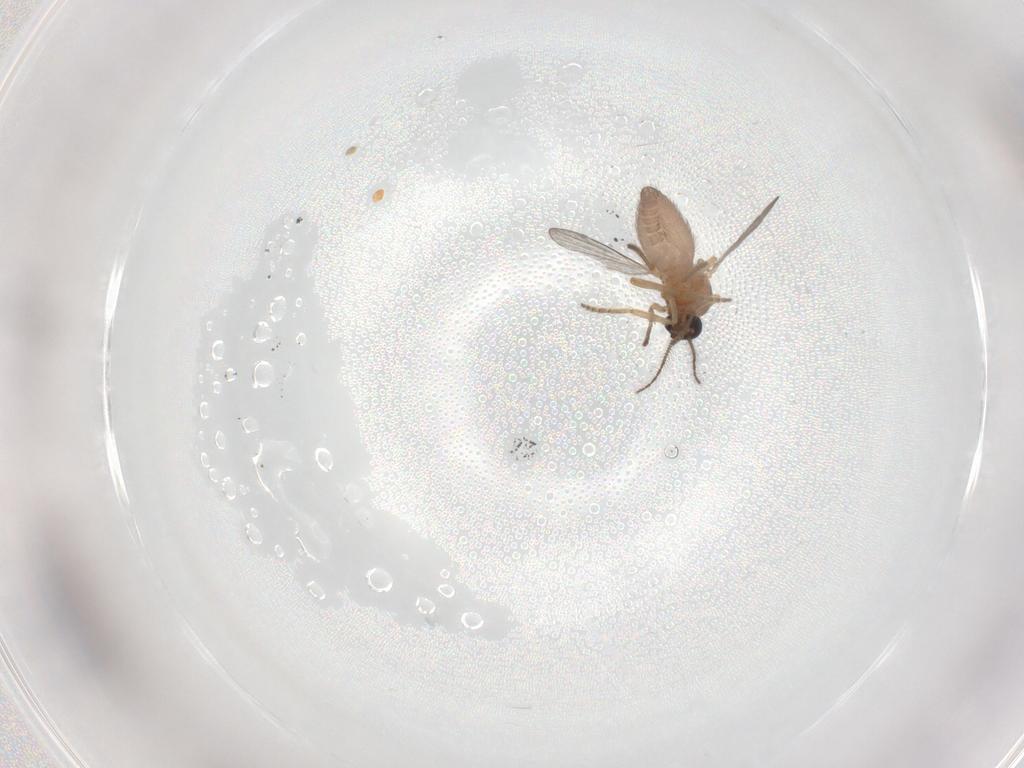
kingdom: Animalia
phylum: Arthropoda
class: Insecta
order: Diptera
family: Ceratopogonidae
